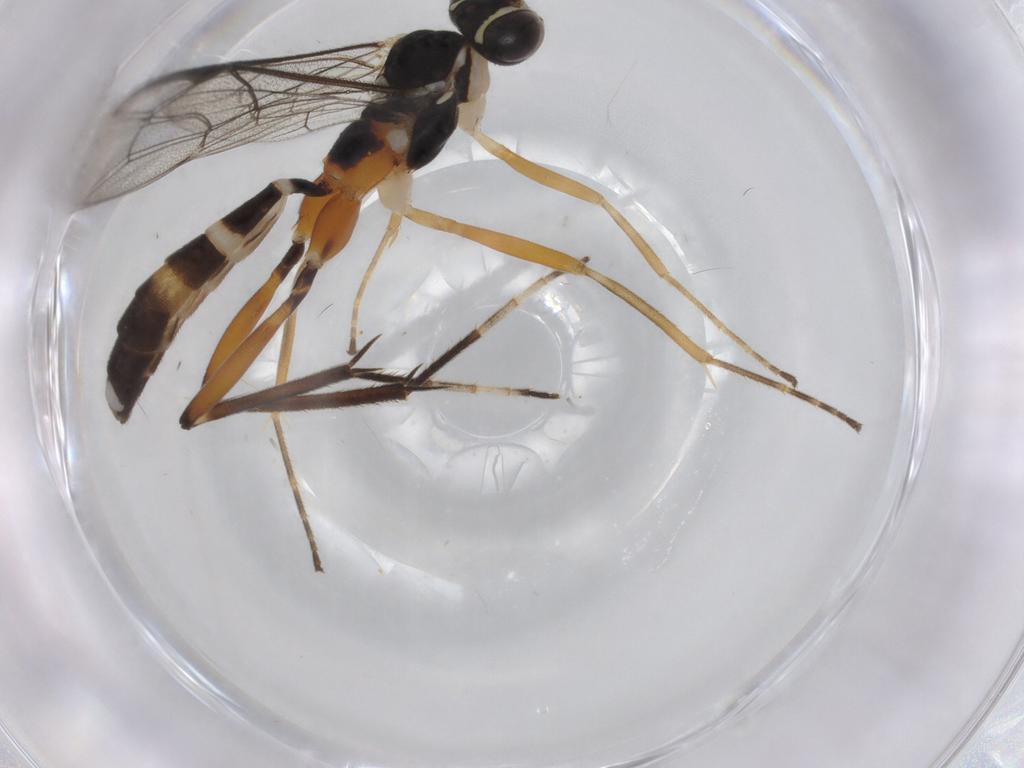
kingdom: Animalia
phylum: Arthropoda
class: Insecta
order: Hymenoptera
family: Ichneumonidae
